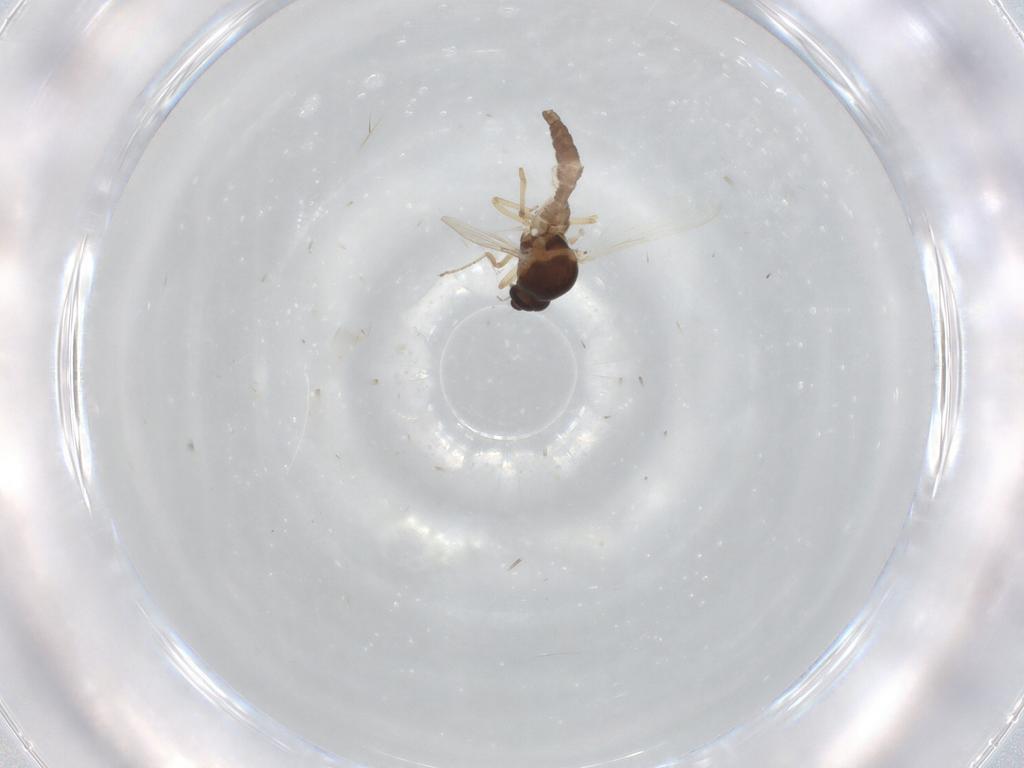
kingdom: Animalia
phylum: Arthropoda
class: Insecta
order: Diptera
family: Ceratopogonidae
